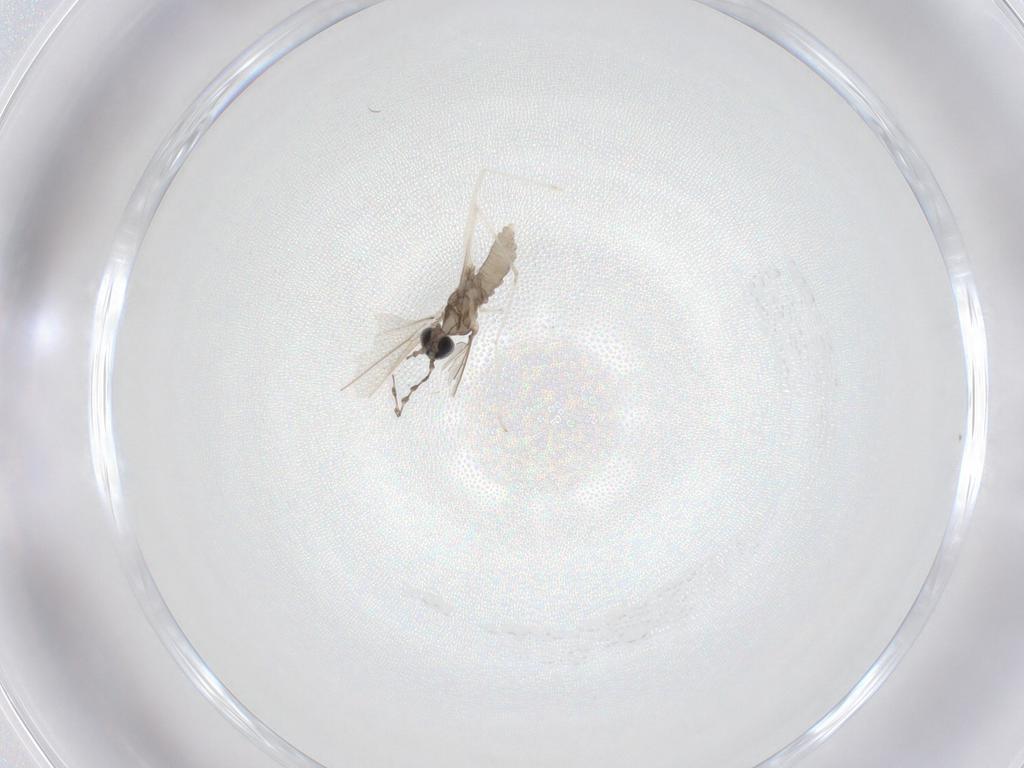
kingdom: Animalia
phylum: Arthropoda
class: Insecta
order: Diptera
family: Cecidomyiidae
